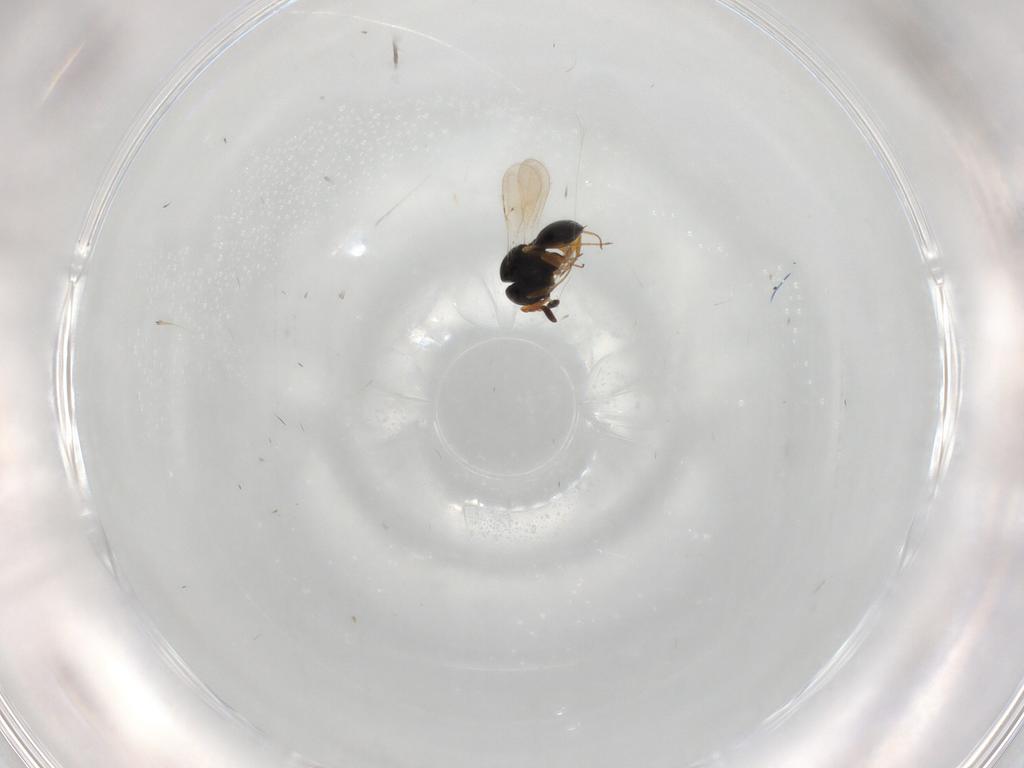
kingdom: Animalia
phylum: Arthropoda
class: Insecta
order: Hymenoptera
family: Scelionidae
